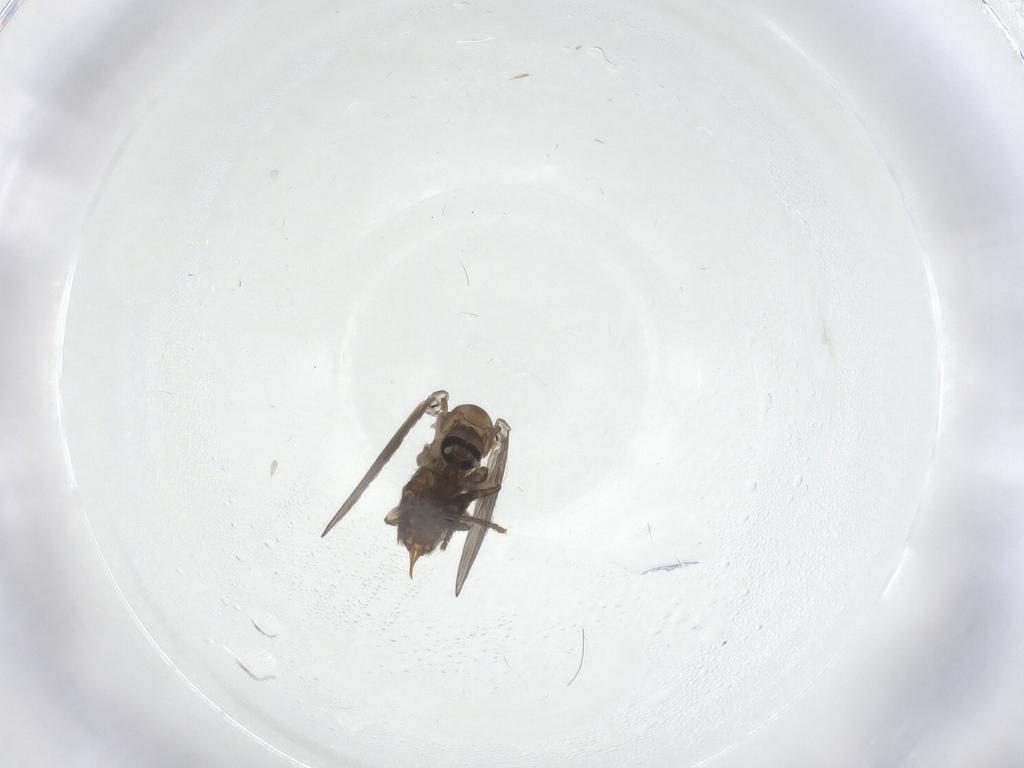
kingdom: Animalia
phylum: Arthropoda
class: Insecta
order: Diptera
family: Psychodidae
